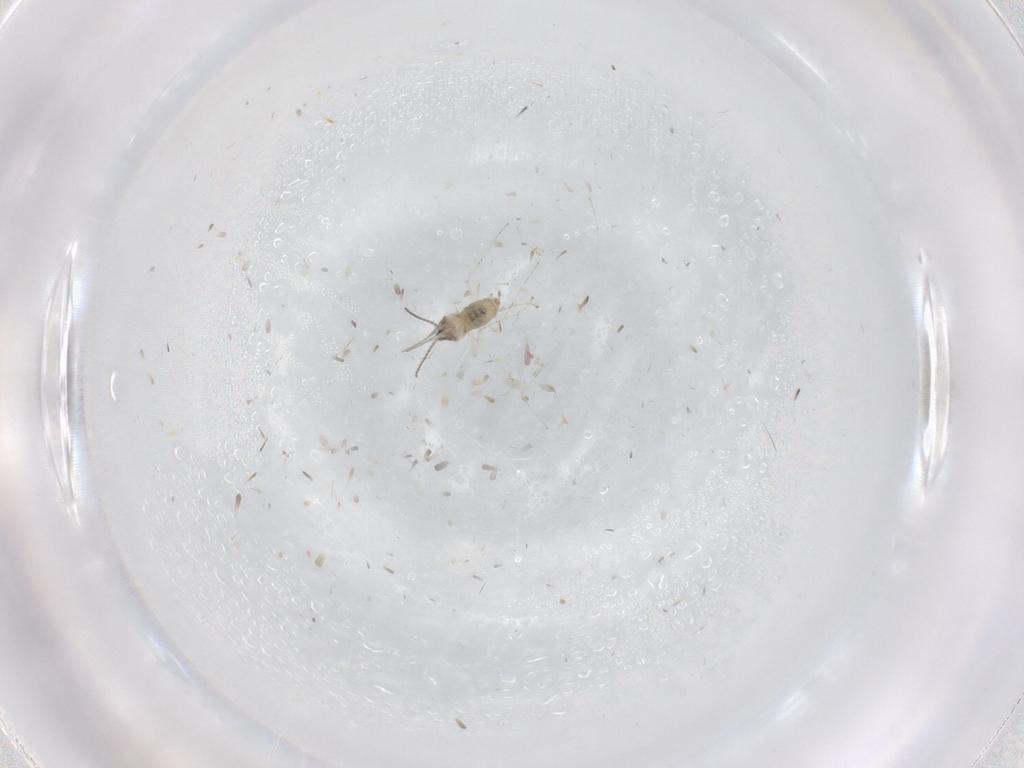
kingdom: Animalia
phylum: Arthropoda
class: Insecta
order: Diptera
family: Cecidomyiidae
